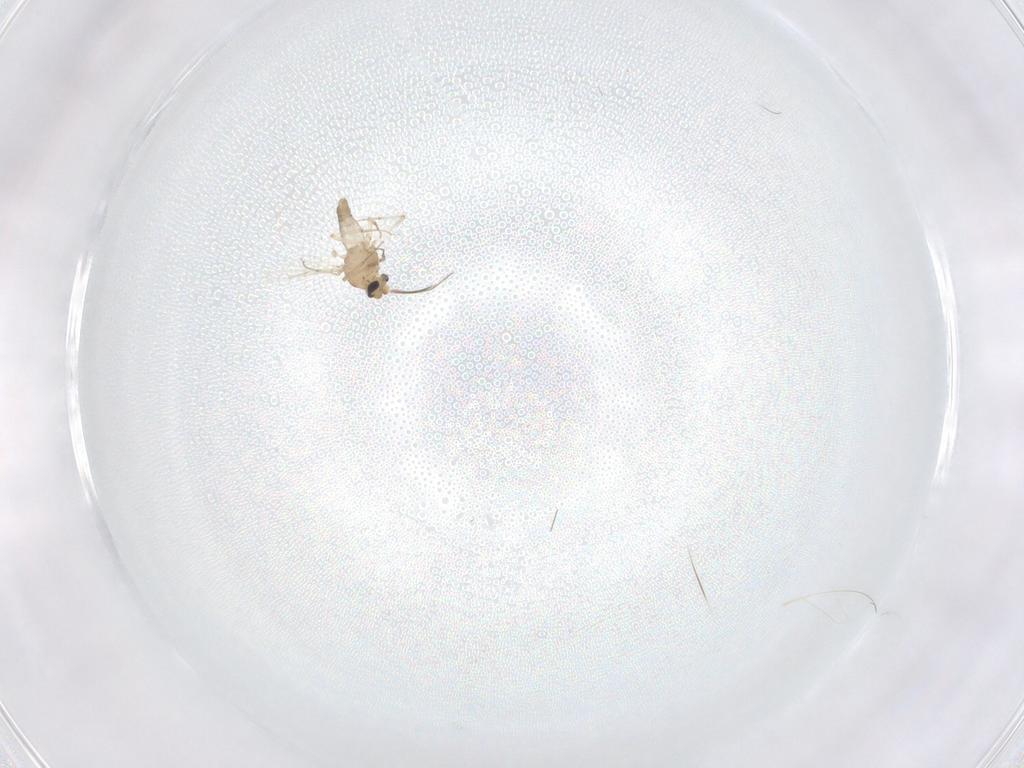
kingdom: Animalia
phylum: Arthropoda
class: Insecta
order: Diptera
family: Ceratopogonidae
